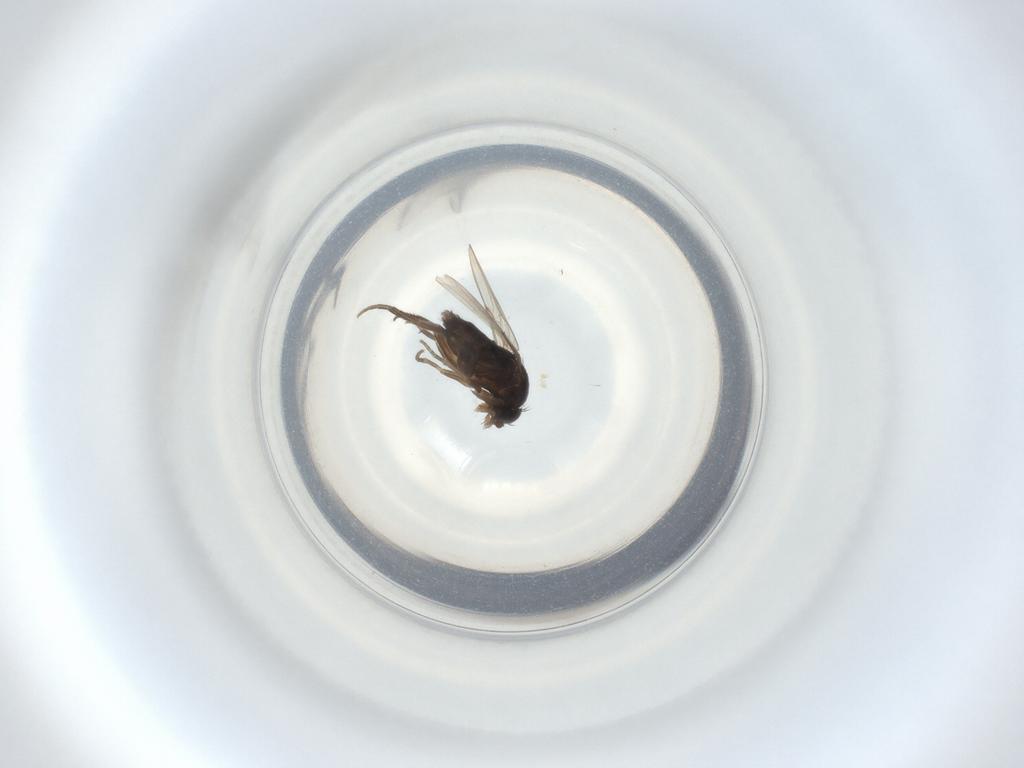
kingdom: Animalia
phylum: Arthropoda
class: Insecta
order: Diptera
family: Phoridae
